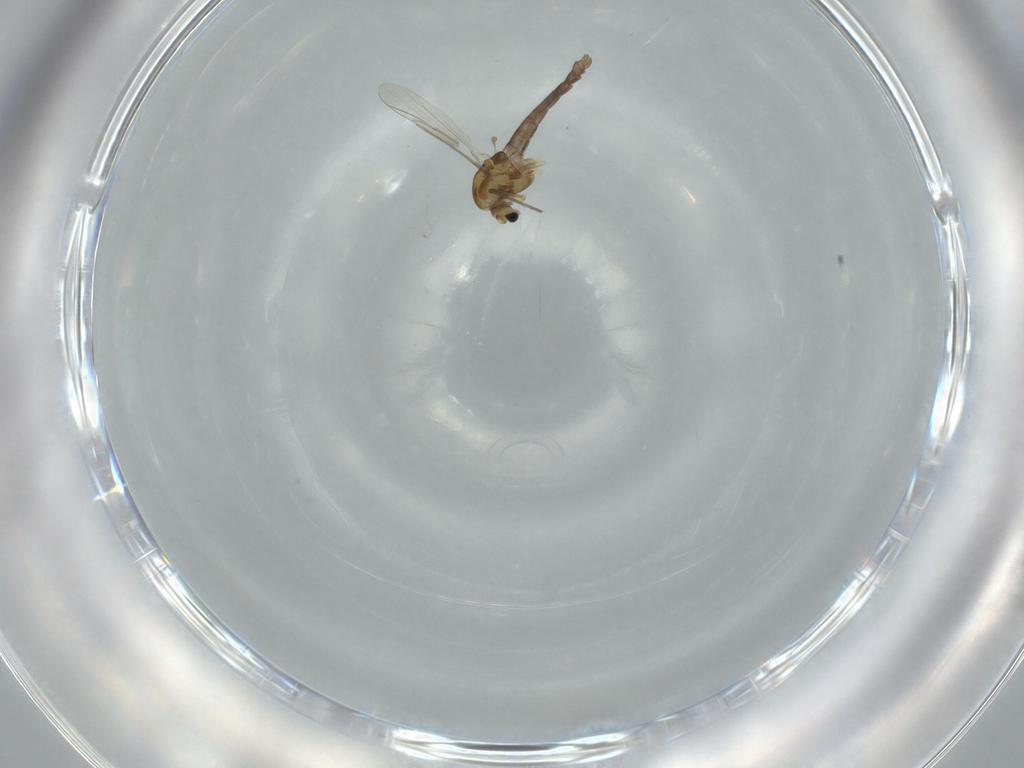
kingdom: Animalia
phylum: Arthropoda
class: Insecta
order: Diptera
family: Chironomidae
